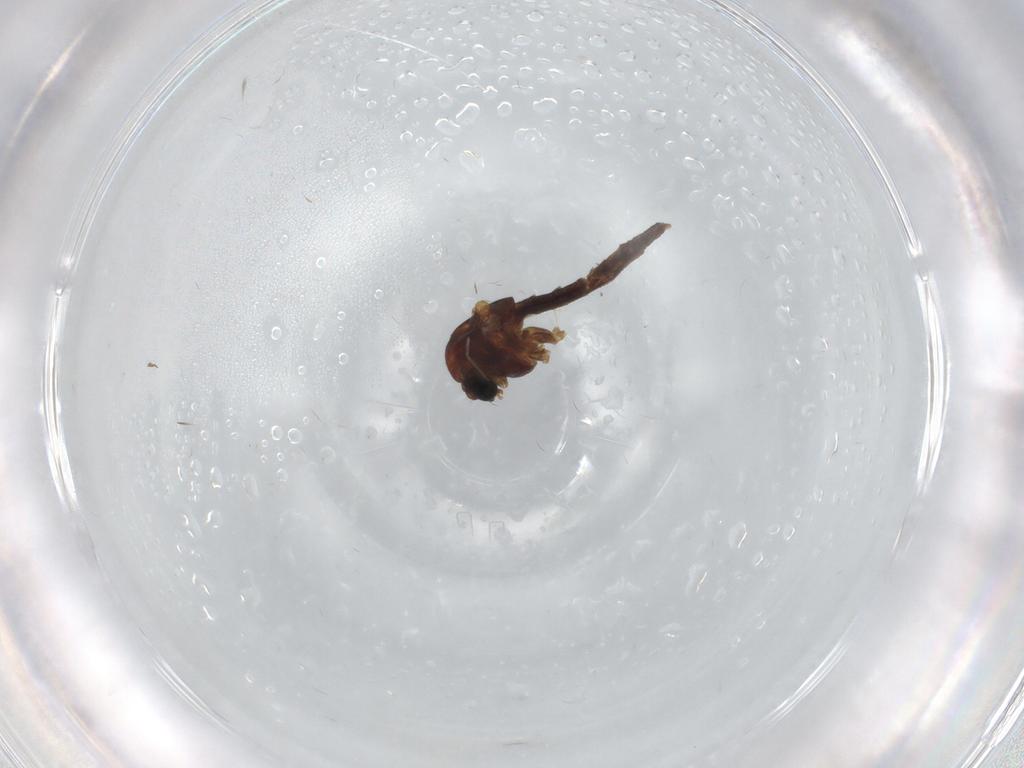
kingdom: Animalia
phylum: Arthropoda
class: Insecta
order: Diptera
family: Chironomidae
